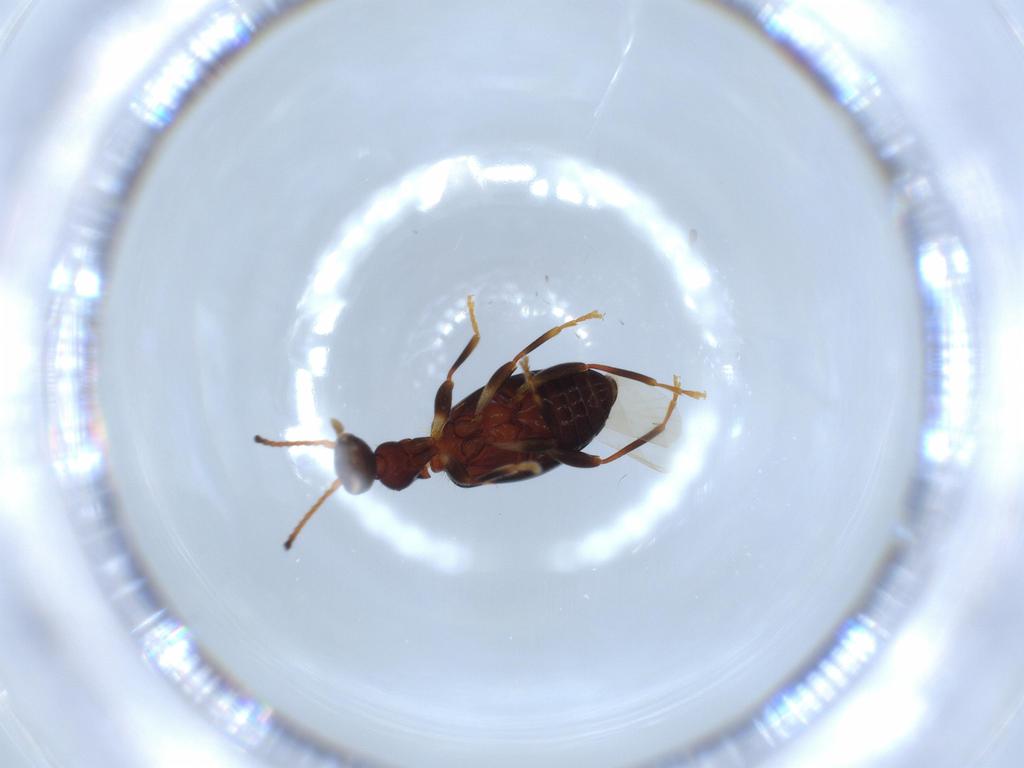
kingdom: Animalia
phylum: Arthropoda
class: Insecta
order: Coleoptera
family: Anthicidae
